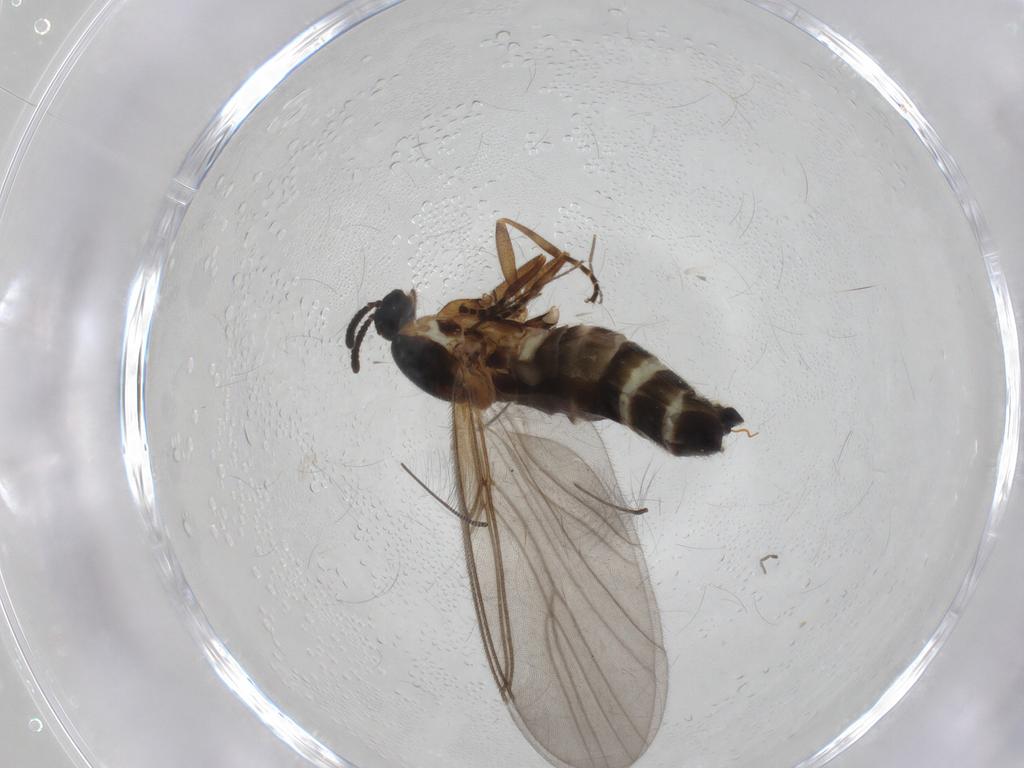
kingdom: Animalia
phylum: Arthropoda
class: Insecta
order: Diptera
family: Scatopsidae
